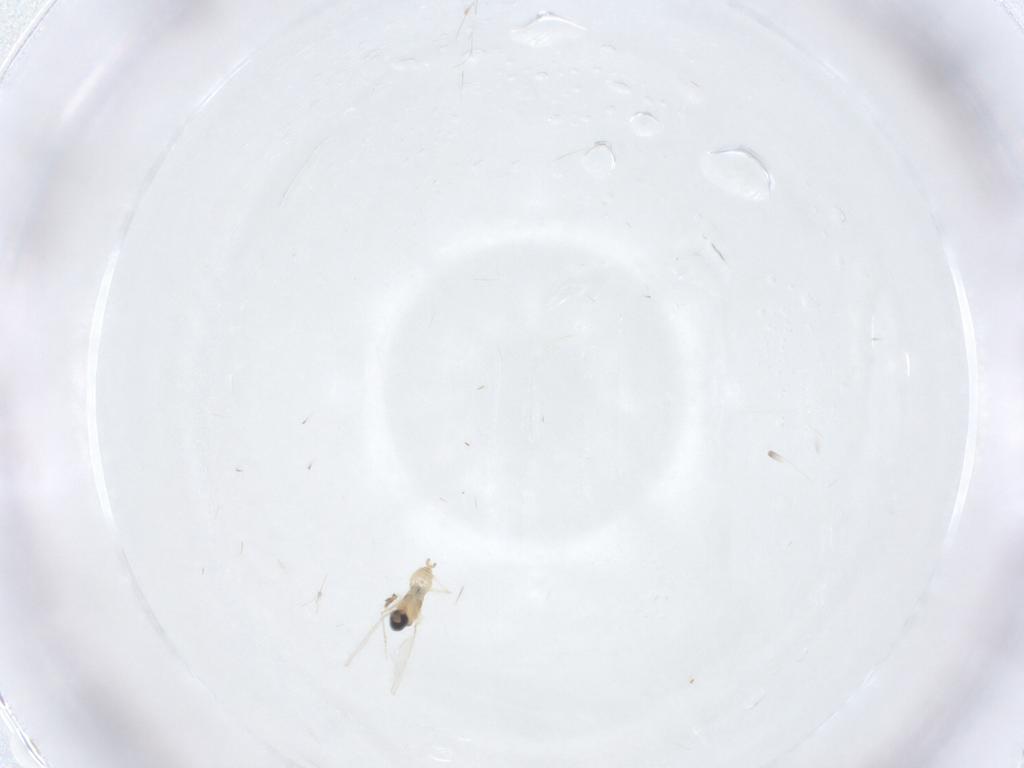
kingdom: Animalia
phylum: Arthropoda
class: Insecta
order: Diptera
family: Cecidomyiidae
